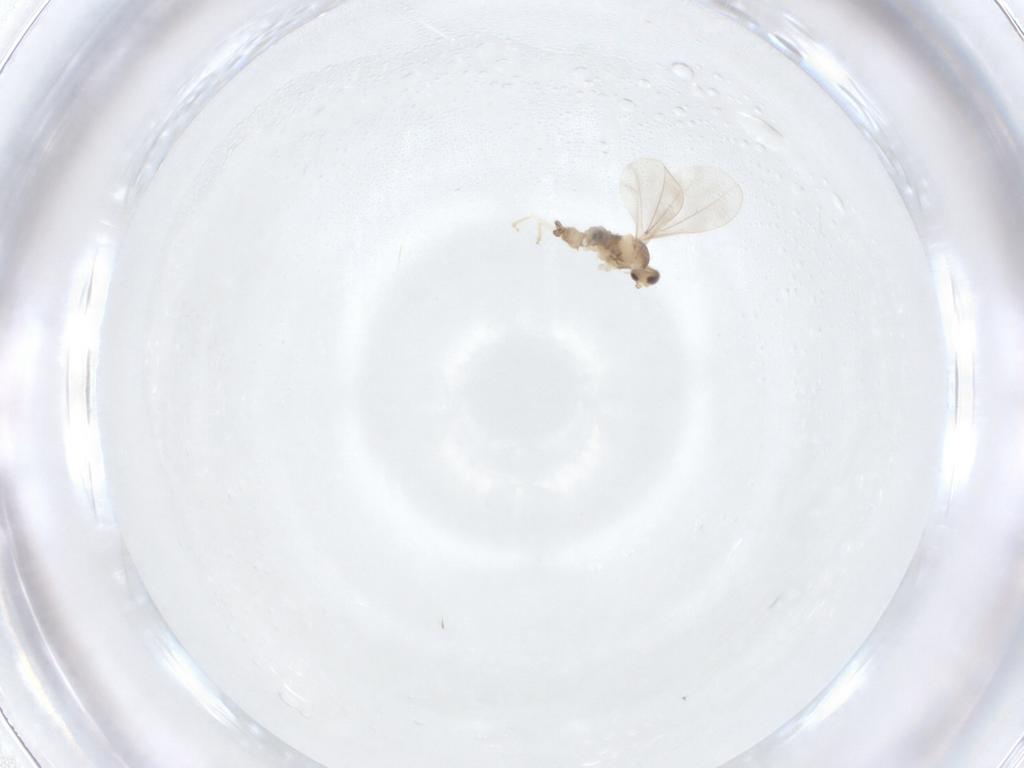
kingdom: Animalia
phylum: Arthropoda
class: Insecta
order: Diptera
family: Cecidomyiidae
